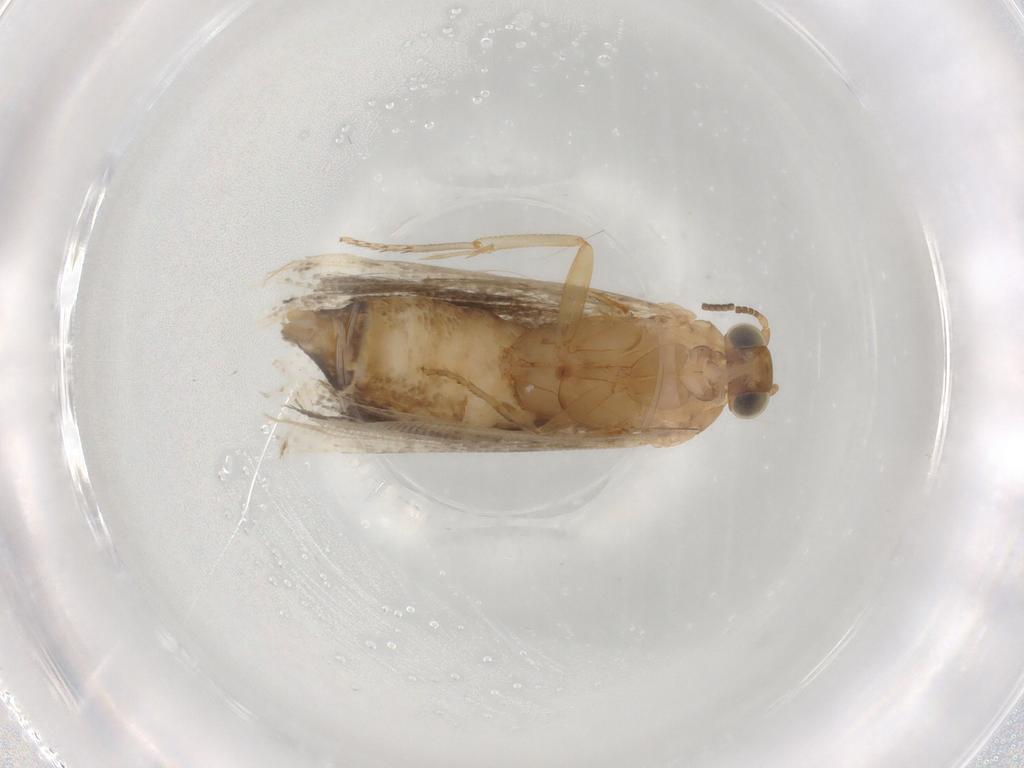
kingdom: Animalia
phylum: Arthropoda
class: Insecta
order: Lepidoptera
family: Tortricidae
